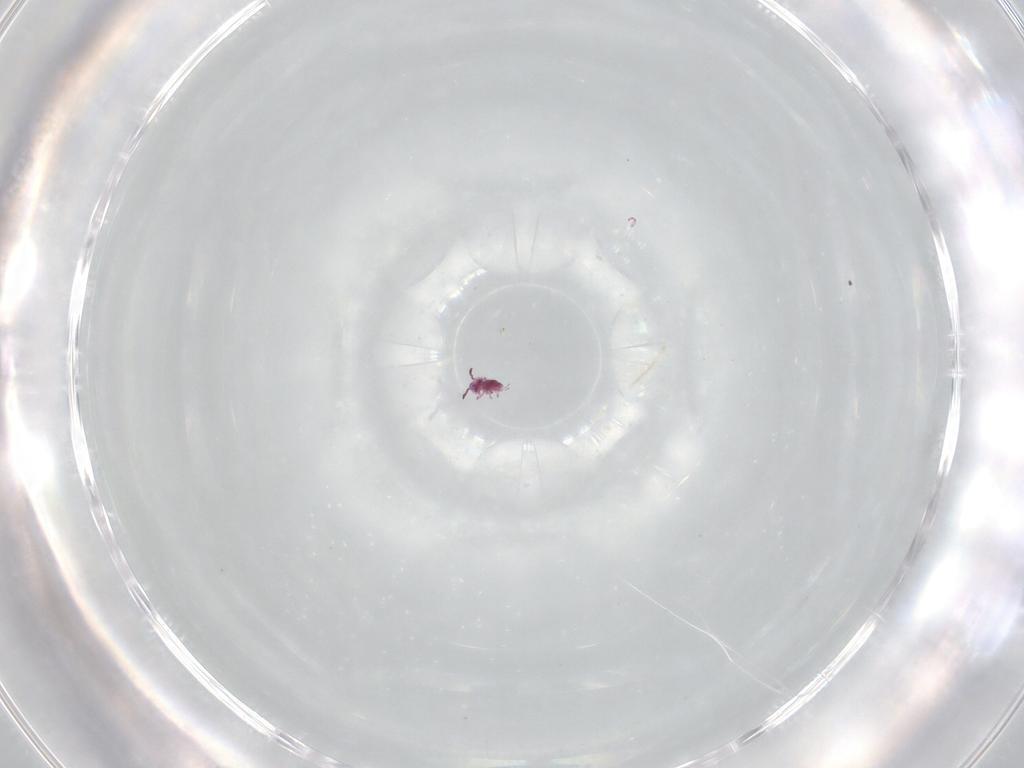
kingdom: Animalia
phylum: Arthropoda
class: Collembola
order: Symphypleona
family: Sminthurididae
